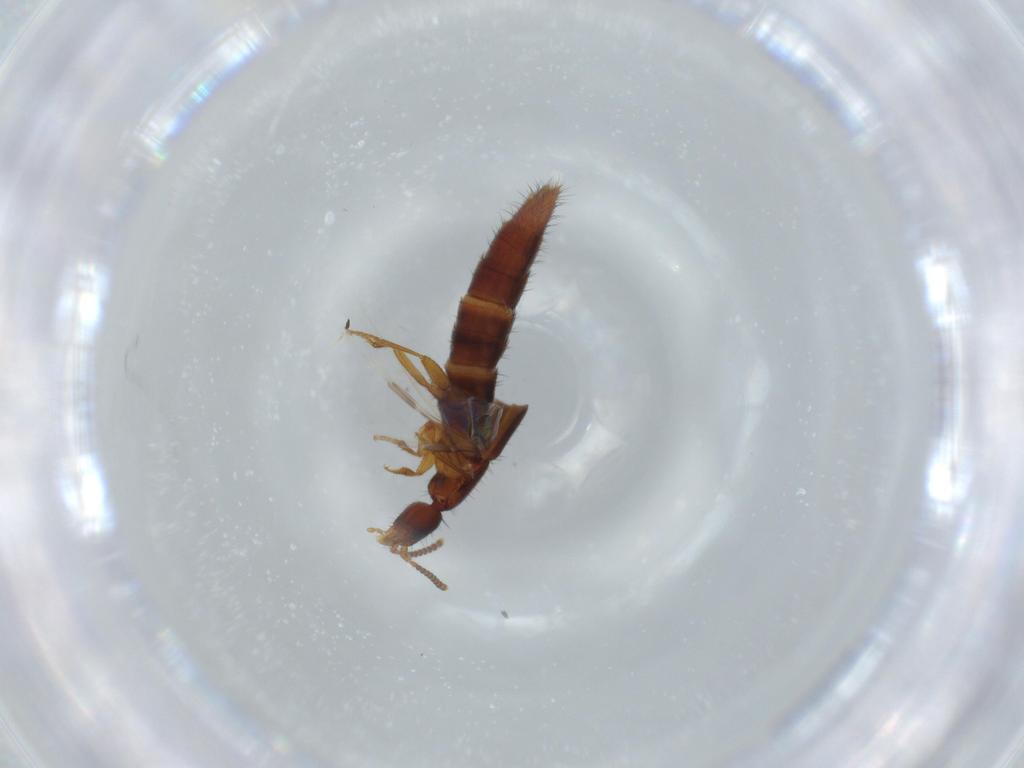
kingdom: Animalia
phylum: Arthropoda
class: Insecta
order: Coleoptera
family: Staphylinidae
